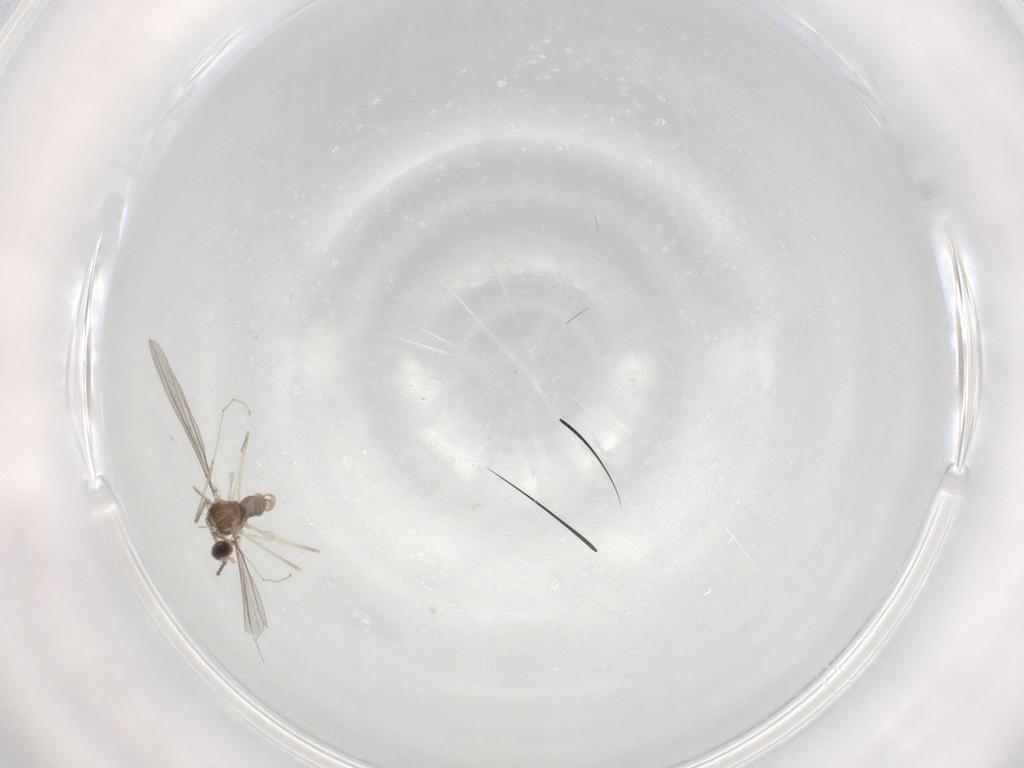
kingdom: Animalia
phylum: Arthropoda
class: Insecta
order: Diptera
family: Cecidomyiidae
